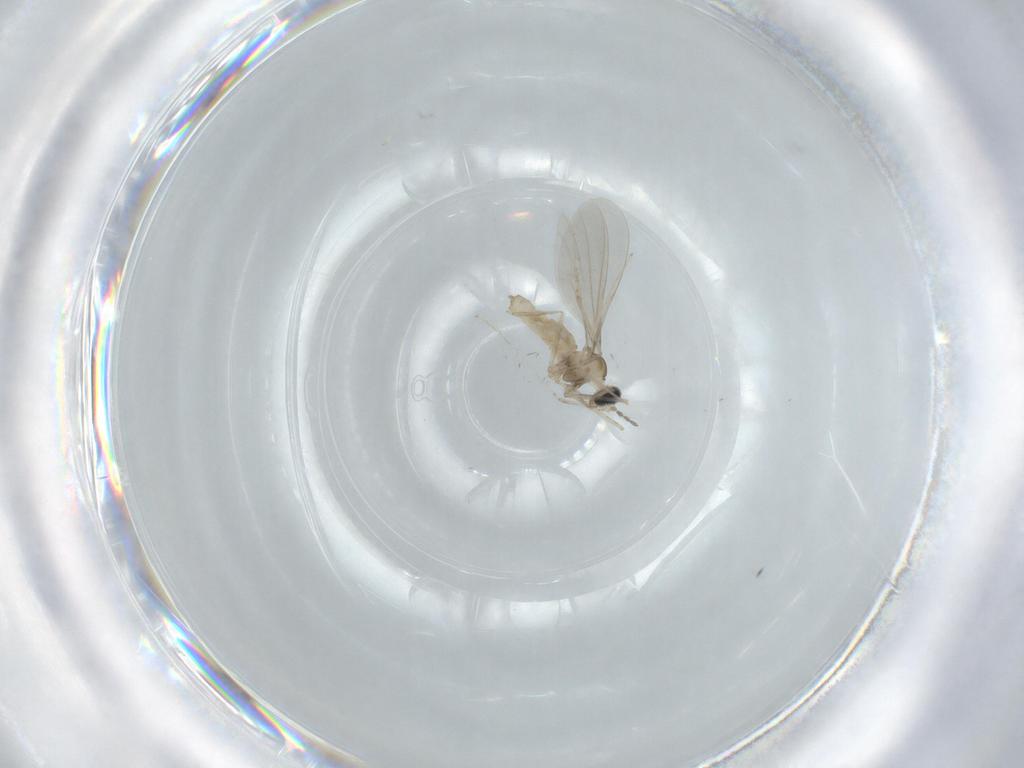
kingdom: Animalia
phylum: Arthropoda
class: Insecta
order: Diptera
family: Cecidomyiidae
